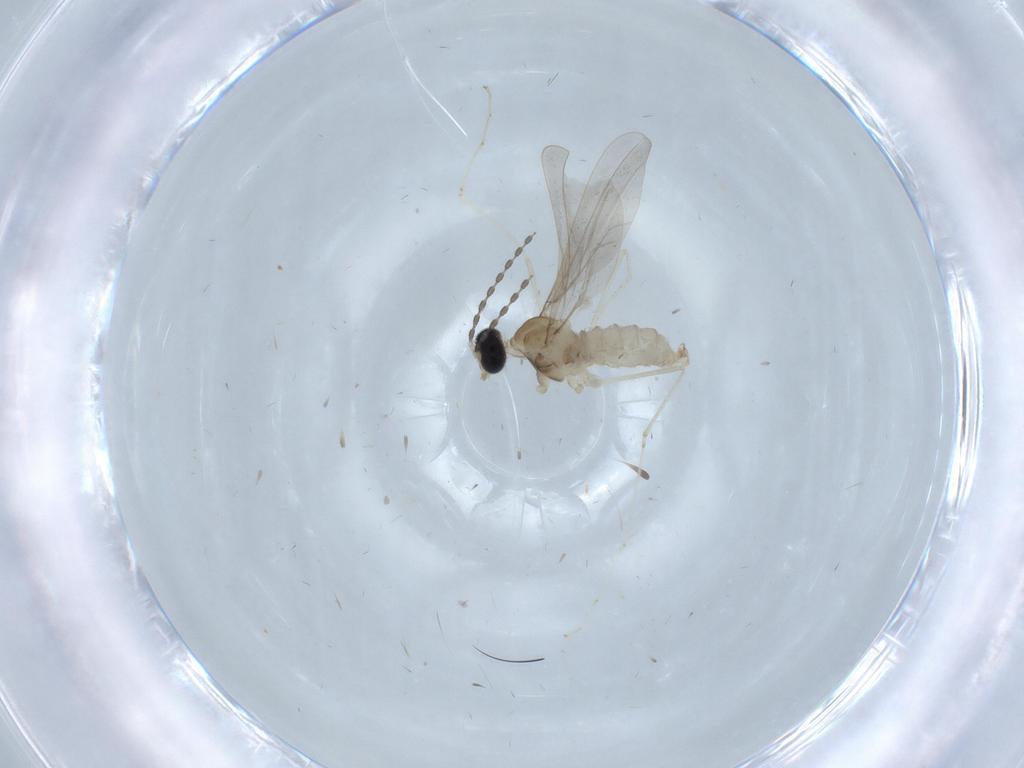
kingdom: Animalia
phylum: Arthropoda
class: Insecta
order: Diptera
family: Cecidomyiidae
